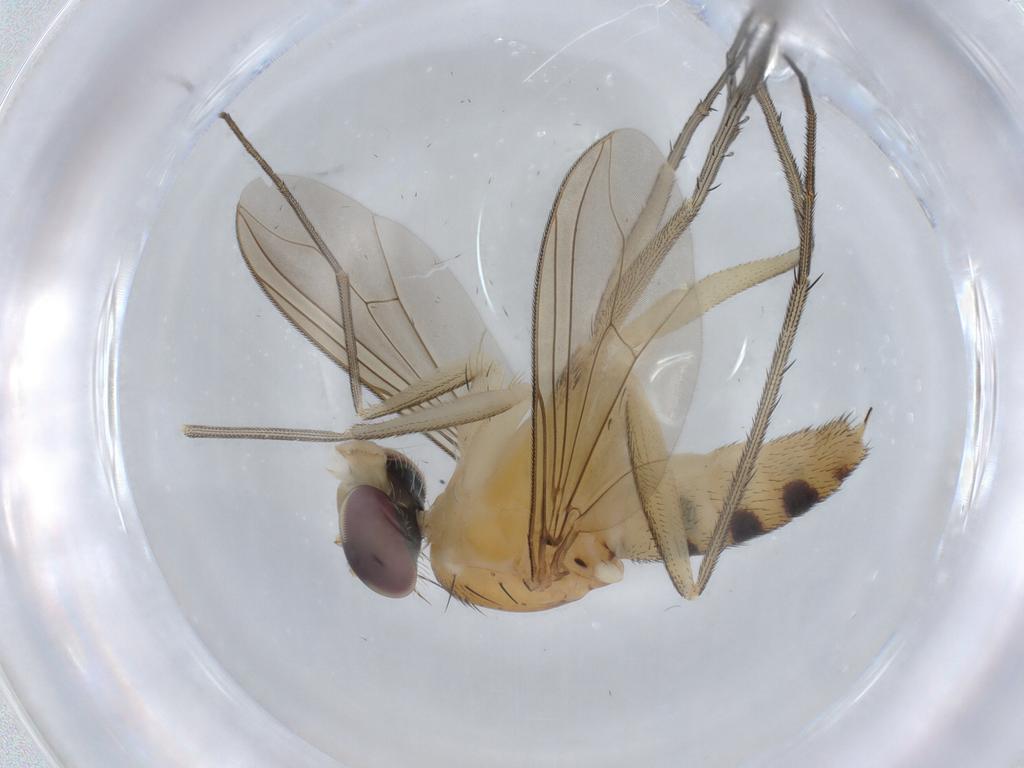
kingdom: Animalia
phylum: Arthropoda
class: Insecta
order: Diptera
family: Dolichopodidae
